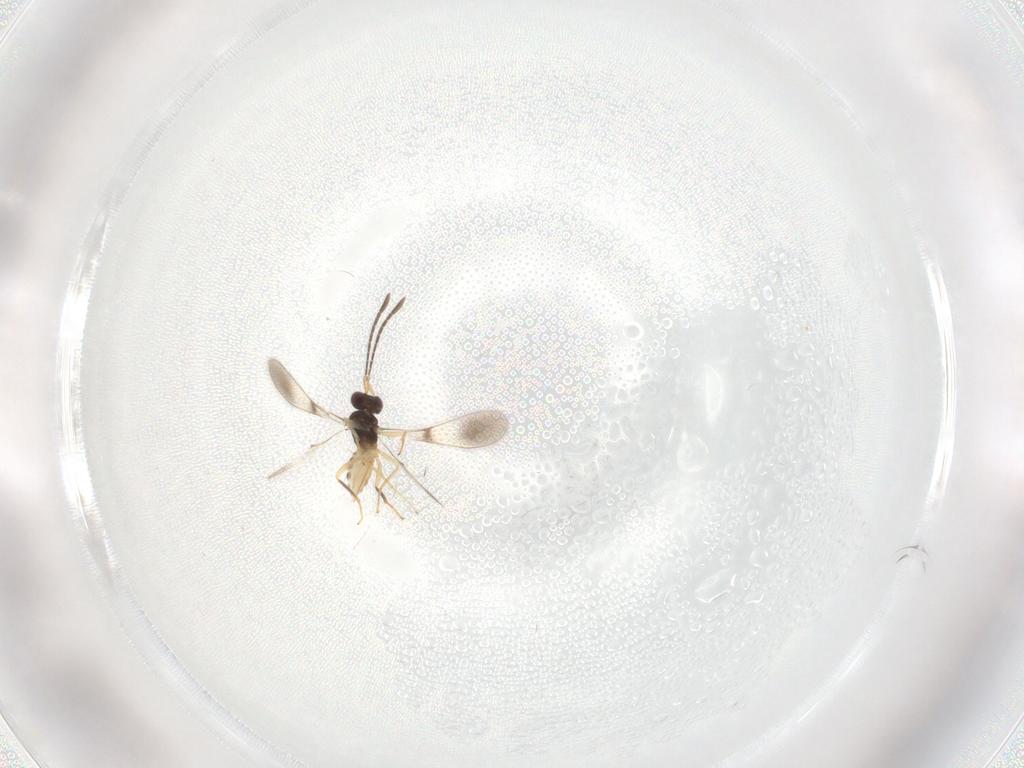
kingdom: Animalia
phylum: Arthropoda
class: Insecta
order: Hymenoptera
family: Mymaridae
